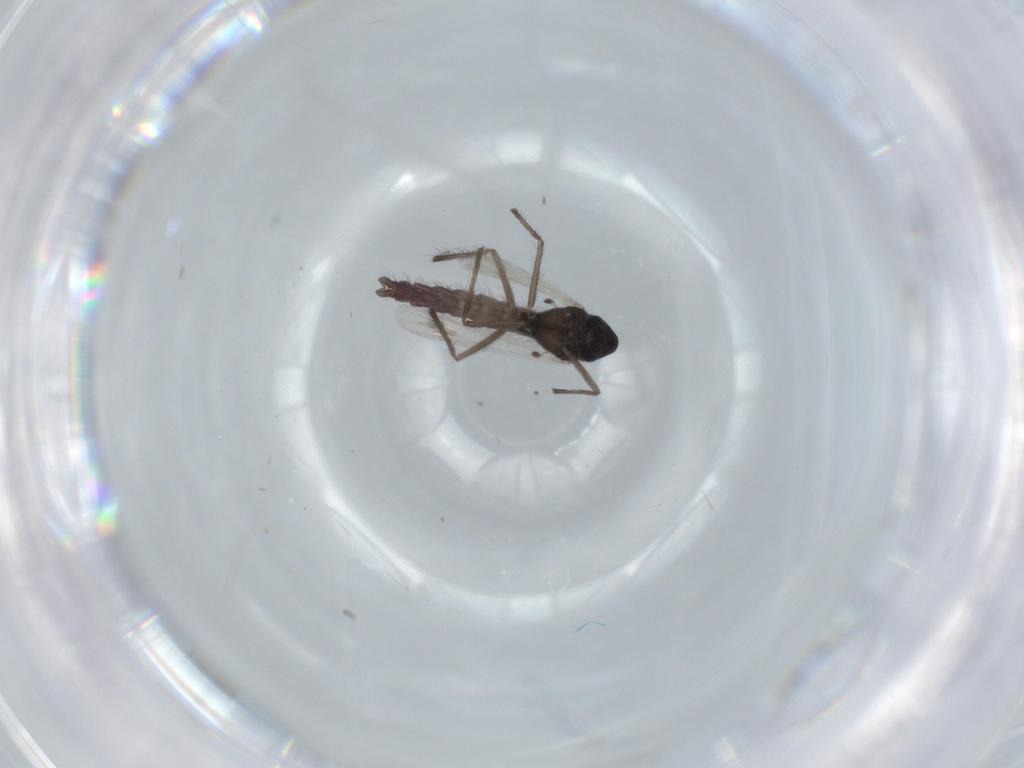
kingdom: Animalia
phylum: Arthropoda
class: Insecta
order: Diptera
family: Chironomidae
